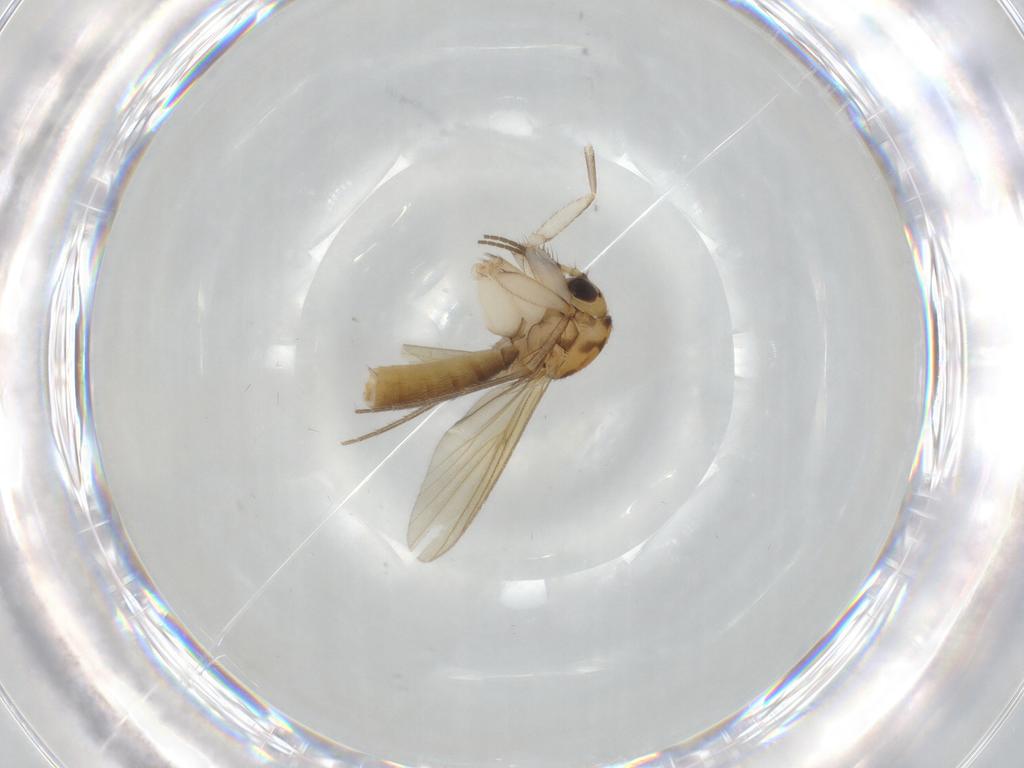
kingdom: Animalia
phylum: Arthropoda
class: Insecta
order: Diptera
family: Mycetophilidae
